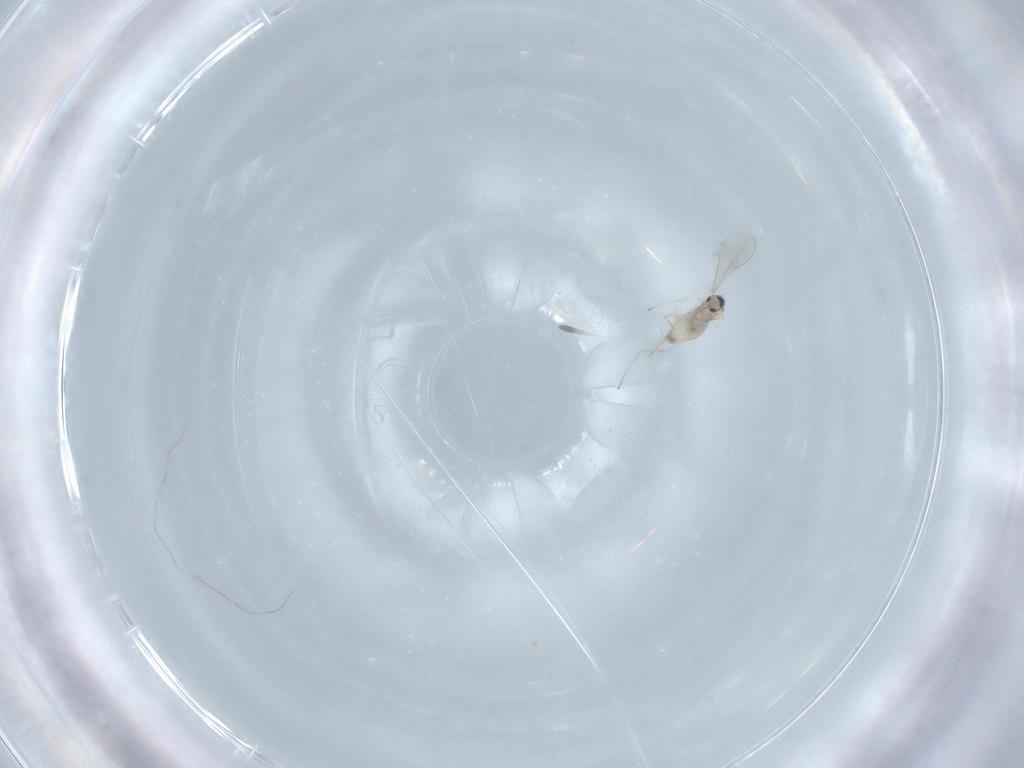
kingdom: Animalia
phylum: Arthropoda
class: Insecta
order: Diptera
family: Cecidomyiidae
